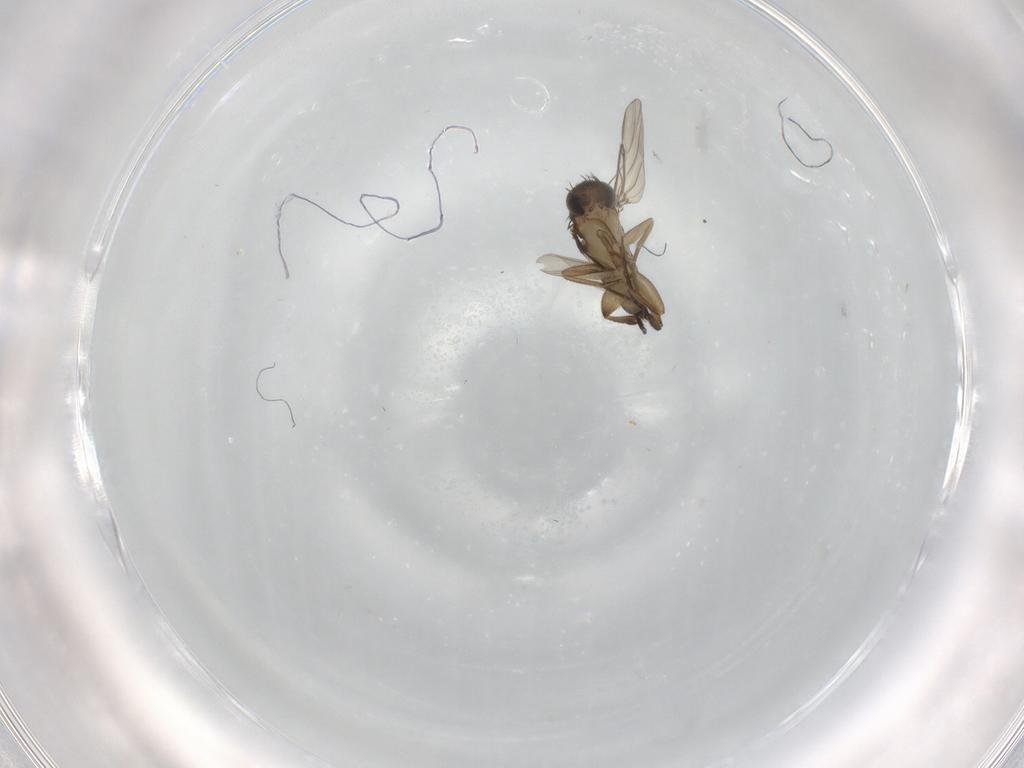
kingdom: Animalia
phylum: Arthropoda
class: Insecta
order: Diptera
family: Phoridae
